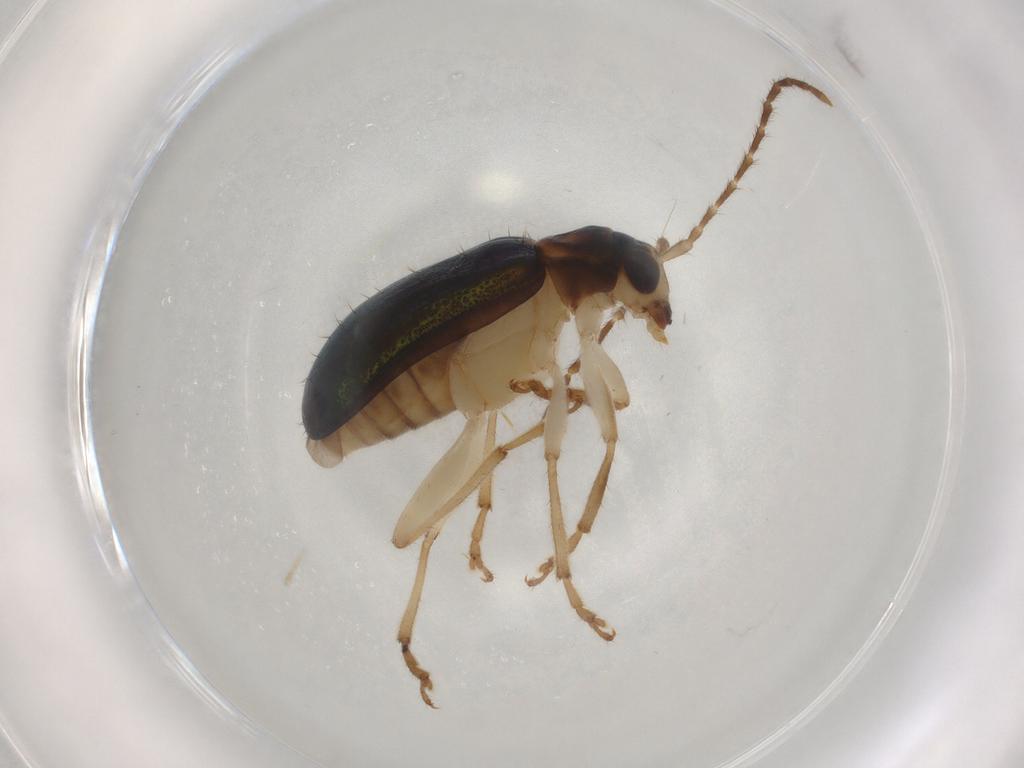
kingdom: Animalia
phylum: Arthropoda
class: Insecta
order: Coleoptera
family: Chrysomelidae
